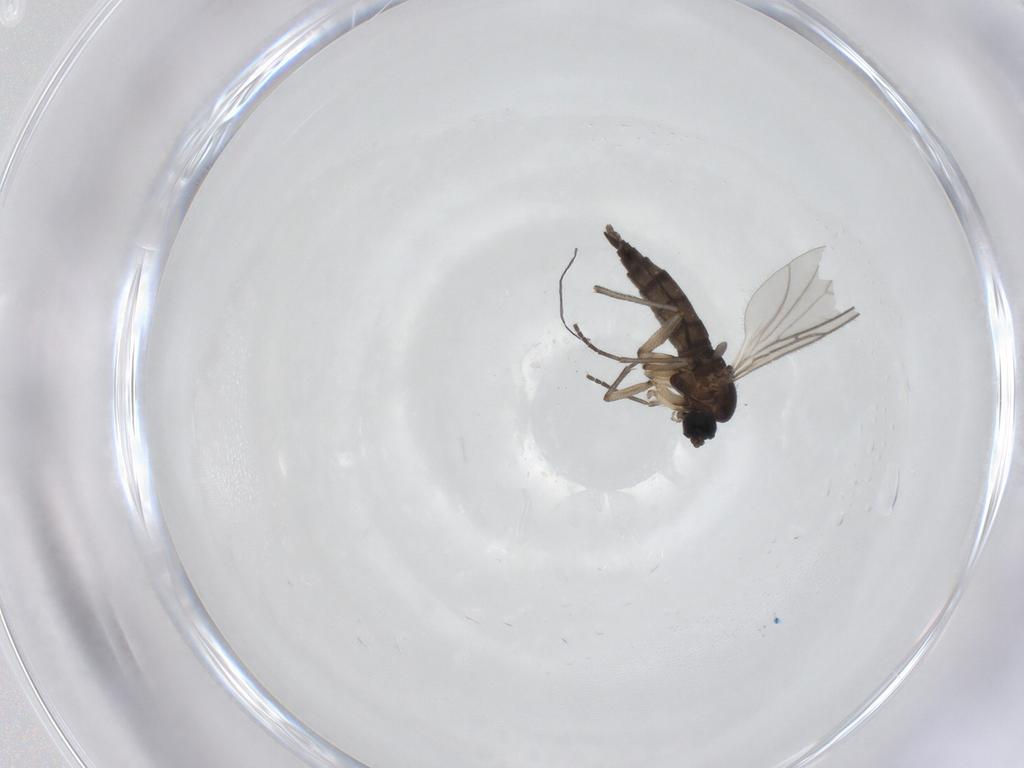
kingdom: Animalia
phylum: Arthropoda
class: Insecta
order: Diptera
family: Sciaridae
